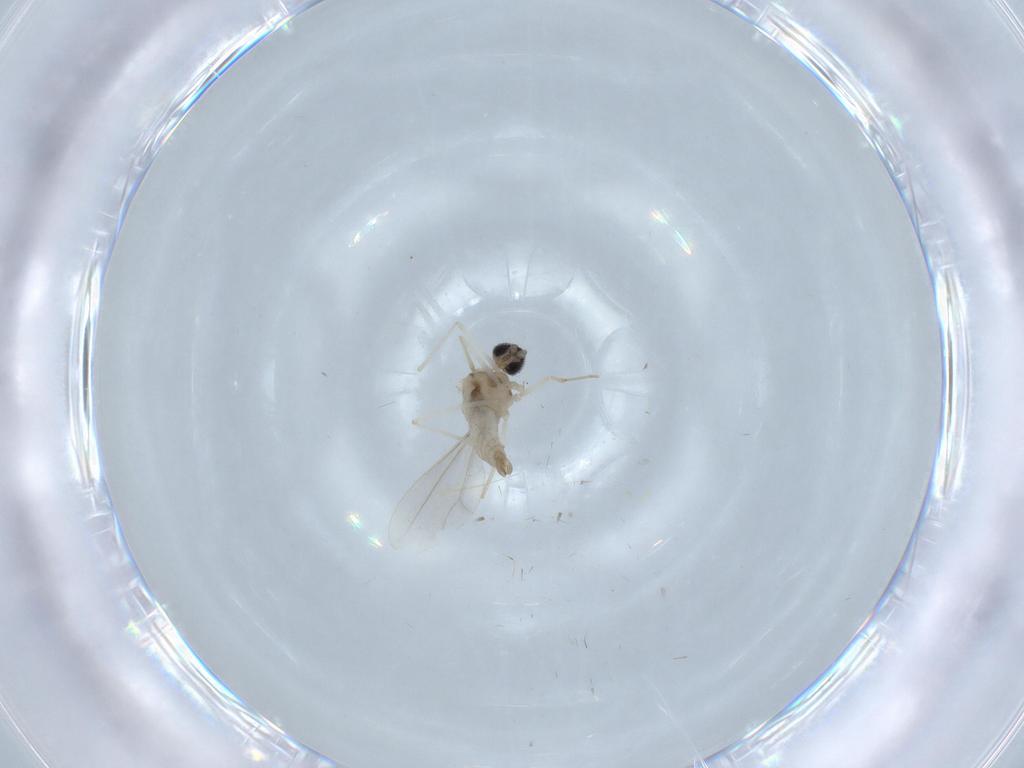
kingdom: Animalia
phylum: Arthropoda
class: Insecta
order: Diptera
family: Cecidomyiidae
